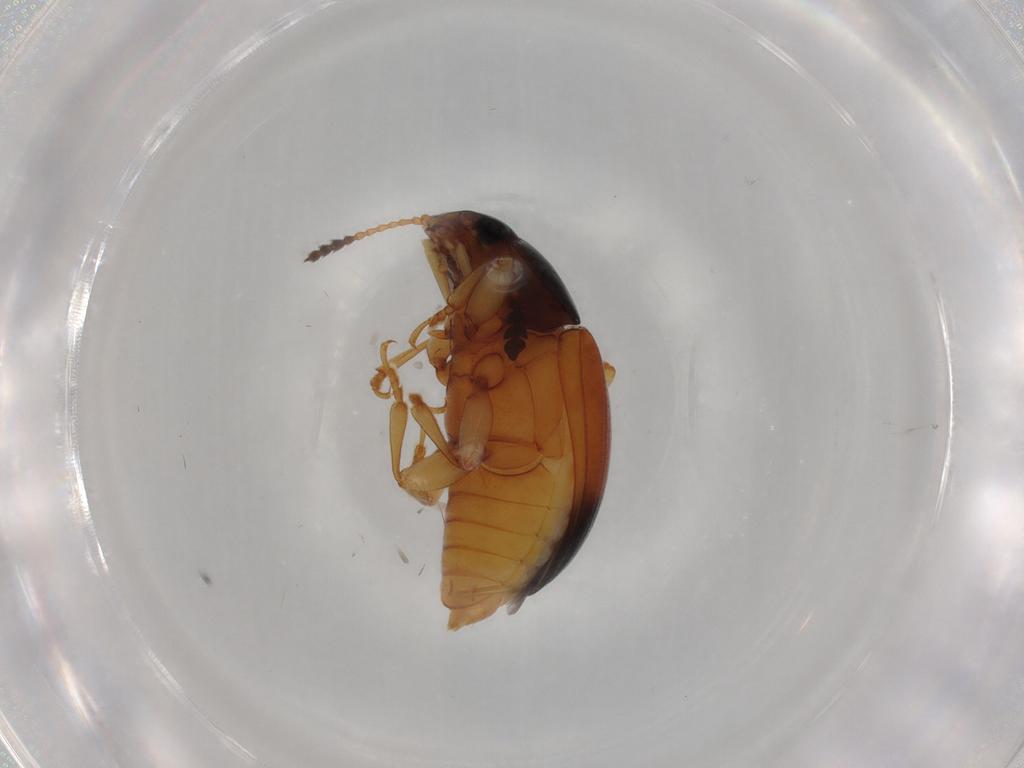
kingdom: Animalia
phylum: Arthropoda
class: Insecta
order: Coleoptera
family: Erotylidae
